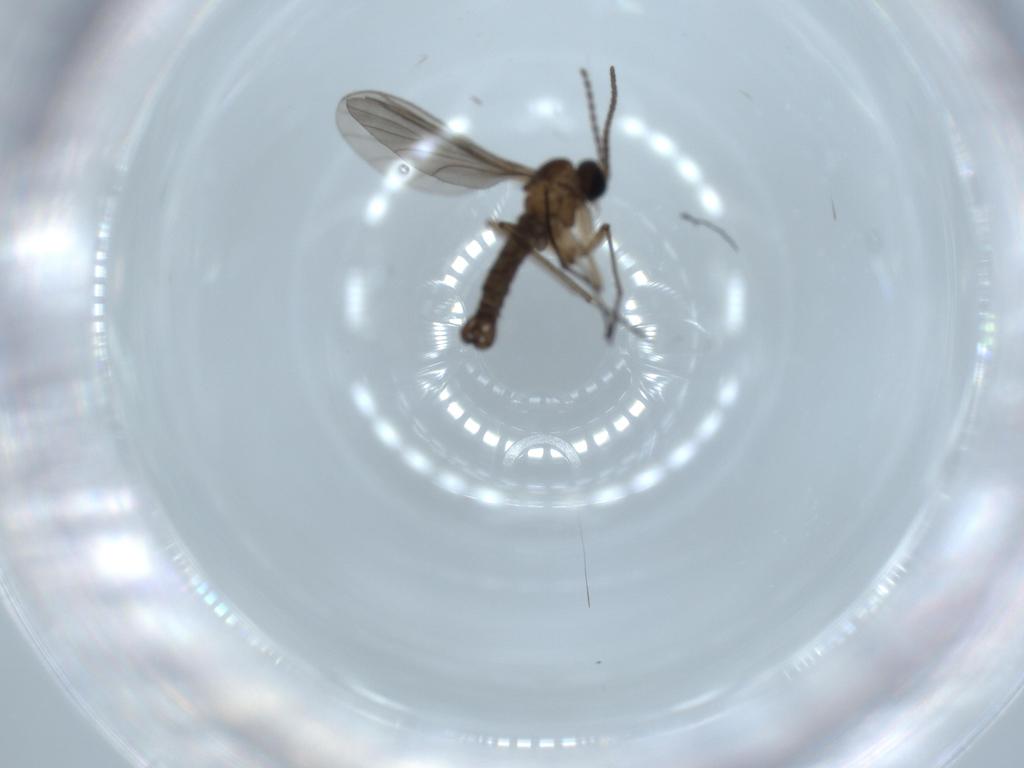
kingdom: Animalia
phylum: Arthropoda
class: Insecta
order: Diptera
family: Sciaridae
